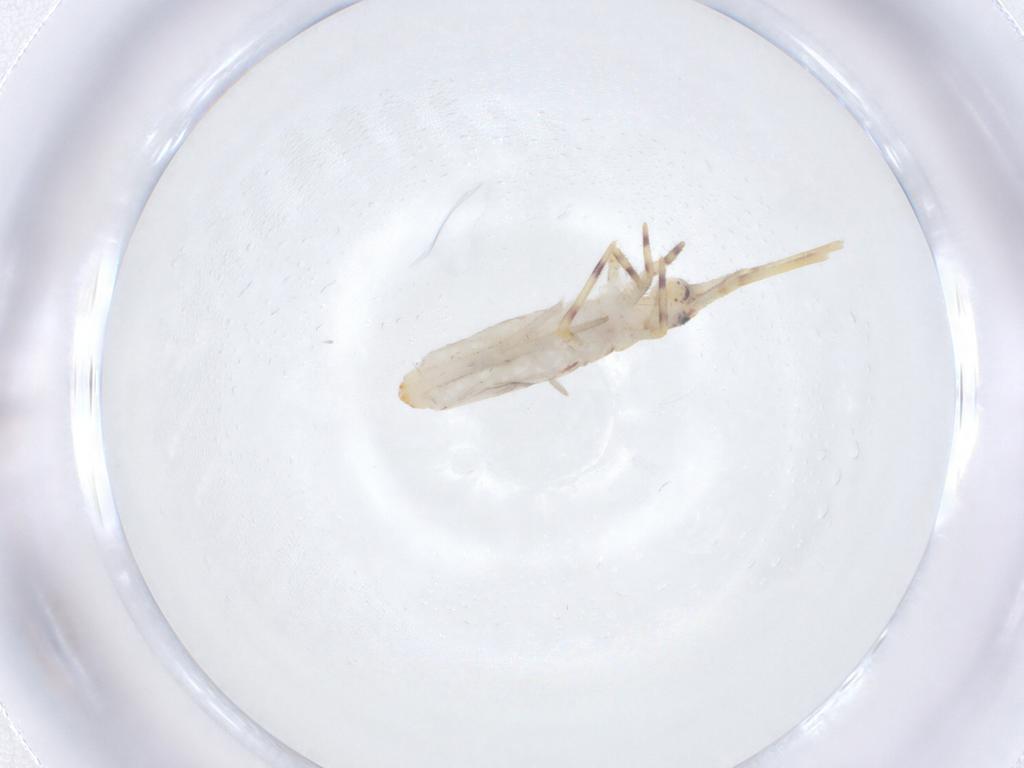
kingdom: Animalia
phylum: Arthropoda
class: Collembola
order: Entomobryomorpha
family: Entomobryidae
